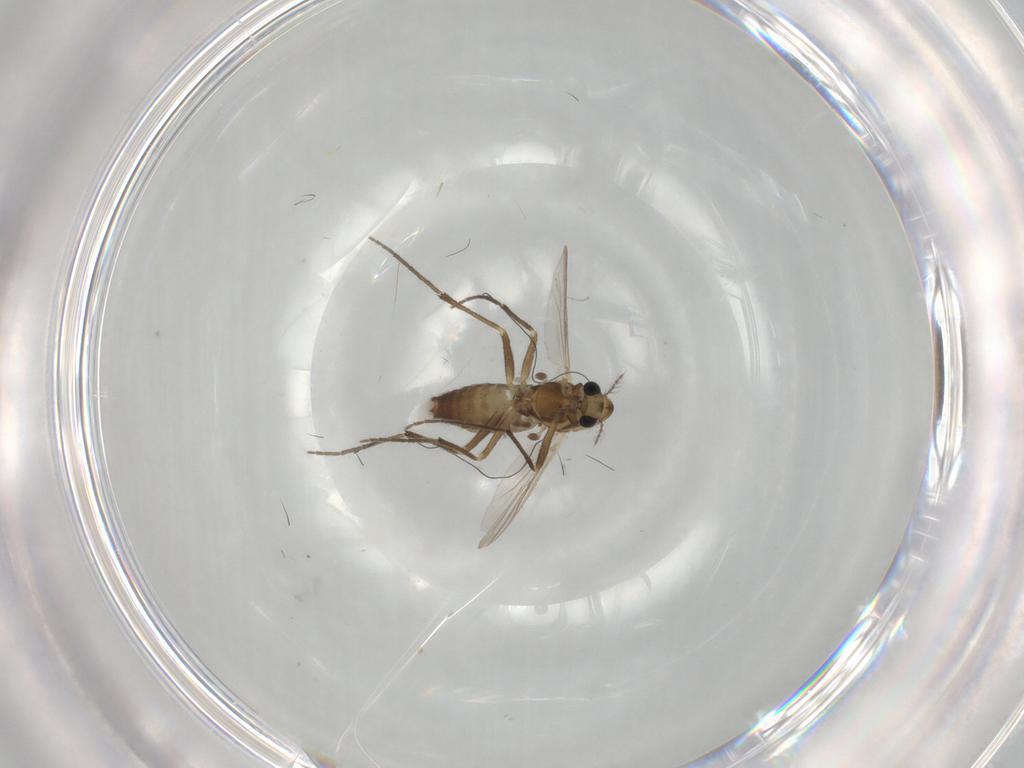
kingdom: Animalia
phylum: Arthropoda
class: Insecta
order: Diptera
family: Chironomidae
